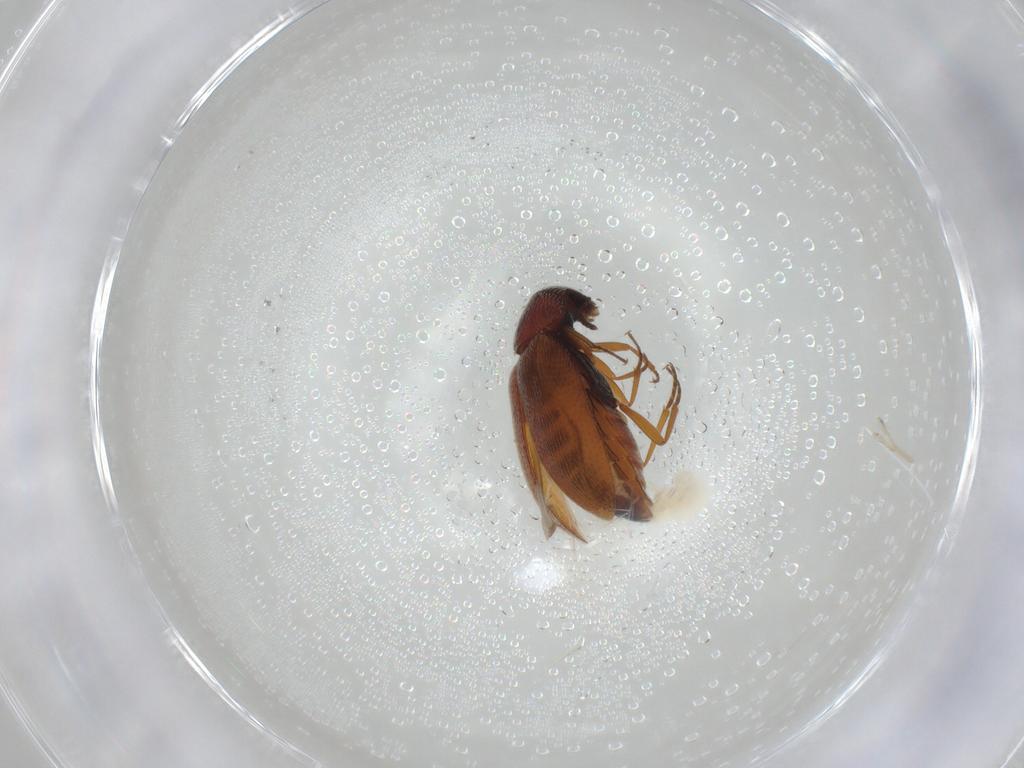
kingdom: Animalia
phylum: Arthropoda
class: Insecta
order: Coleoptera
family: Rhadalidae
